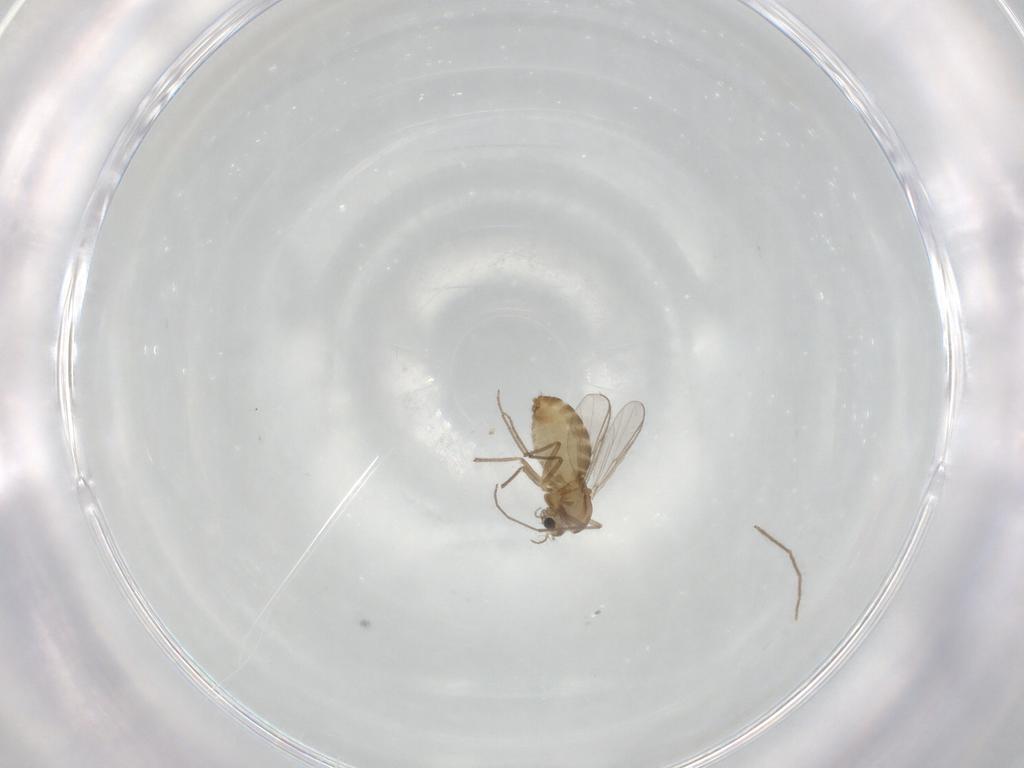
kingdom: Animalia
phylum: Arthropoda
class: Insecta
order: Diptera
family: Chironomidae
